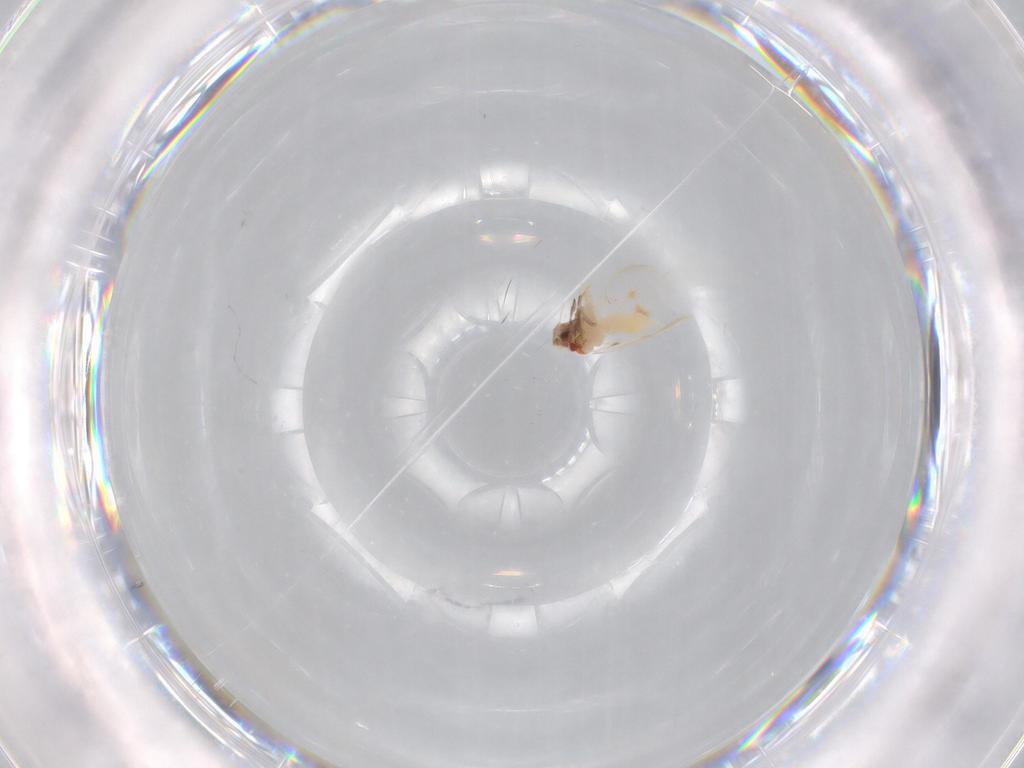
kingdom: Animalia
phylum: Arthropoda
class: Insecta
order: Hemiptera
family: Aleyrodidae
